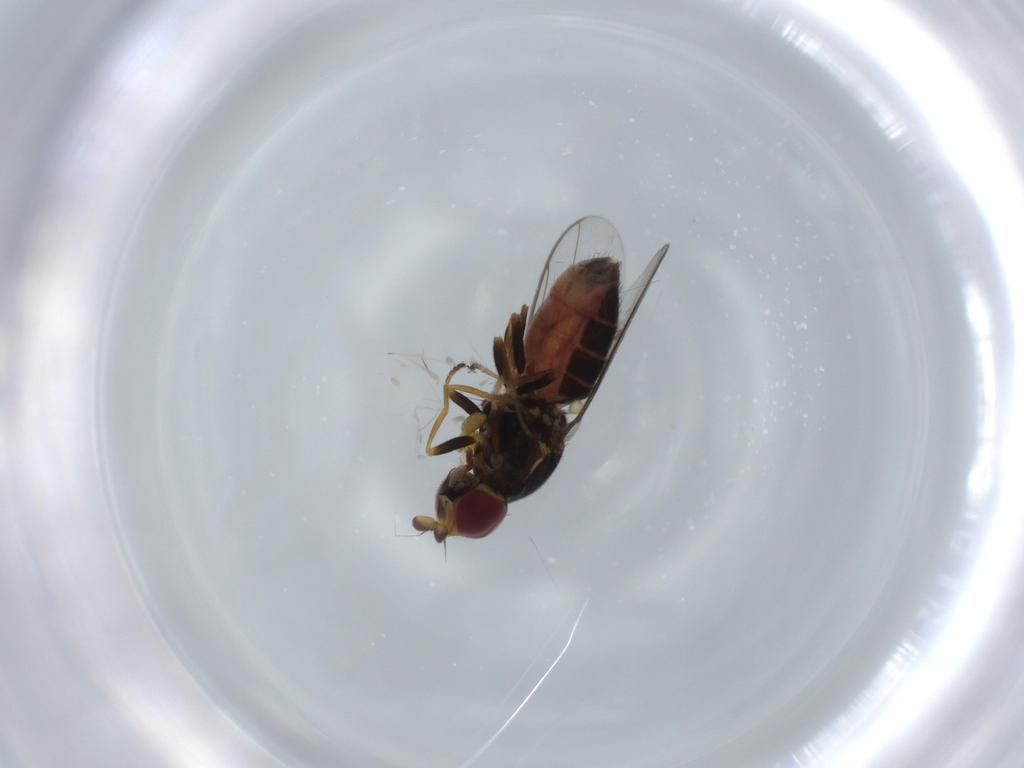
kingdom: Animalia
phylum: Arthropoda
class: Insecta
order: Diptera
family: Chloropidae
